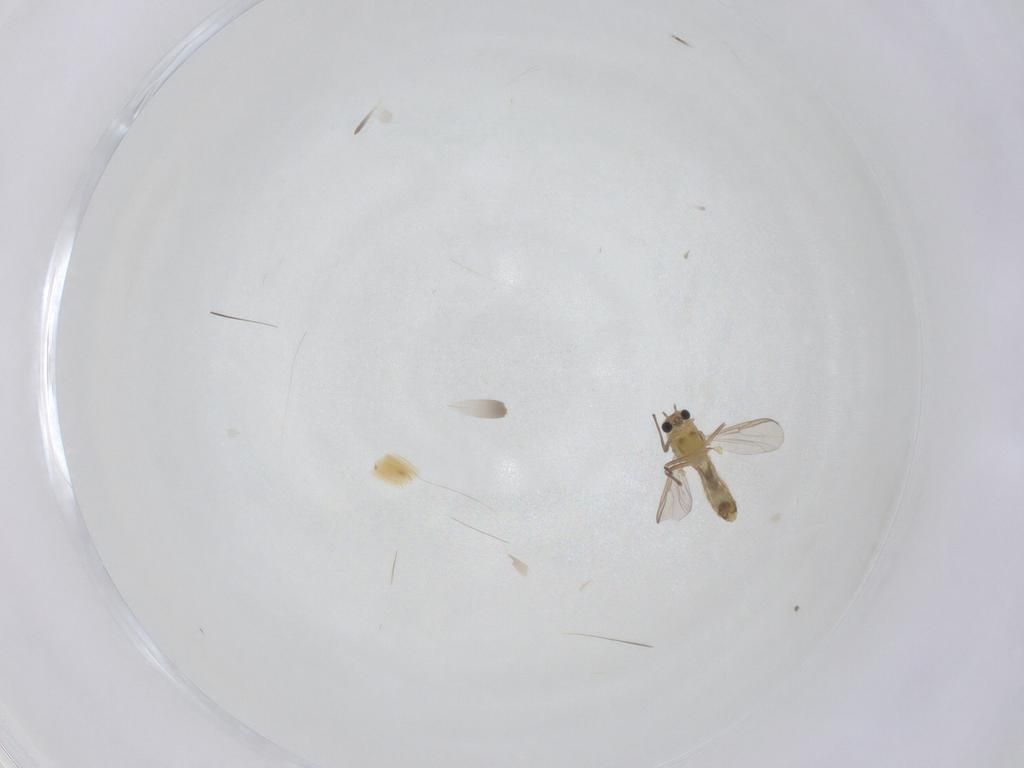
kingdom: Animalia
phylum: Arthropoda
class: Insecta
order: Diptera
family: Chironomidae
